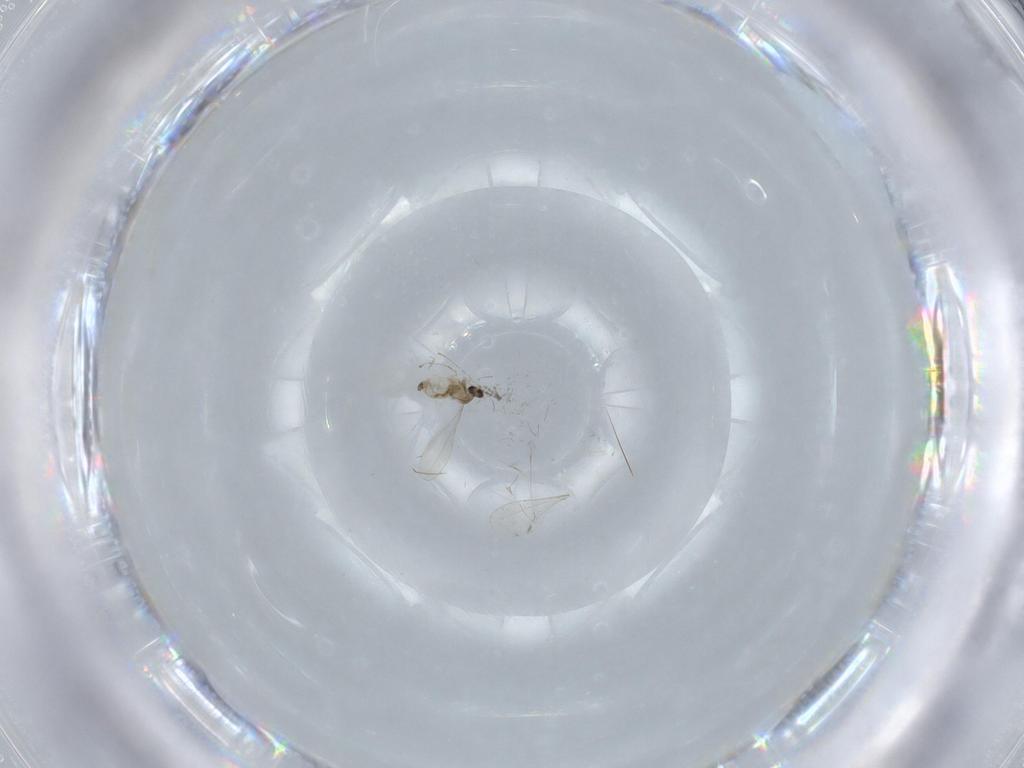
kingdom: Animalia
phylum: Arthropoda
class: Insecta
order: Diptera
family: Cecidomyiidae
